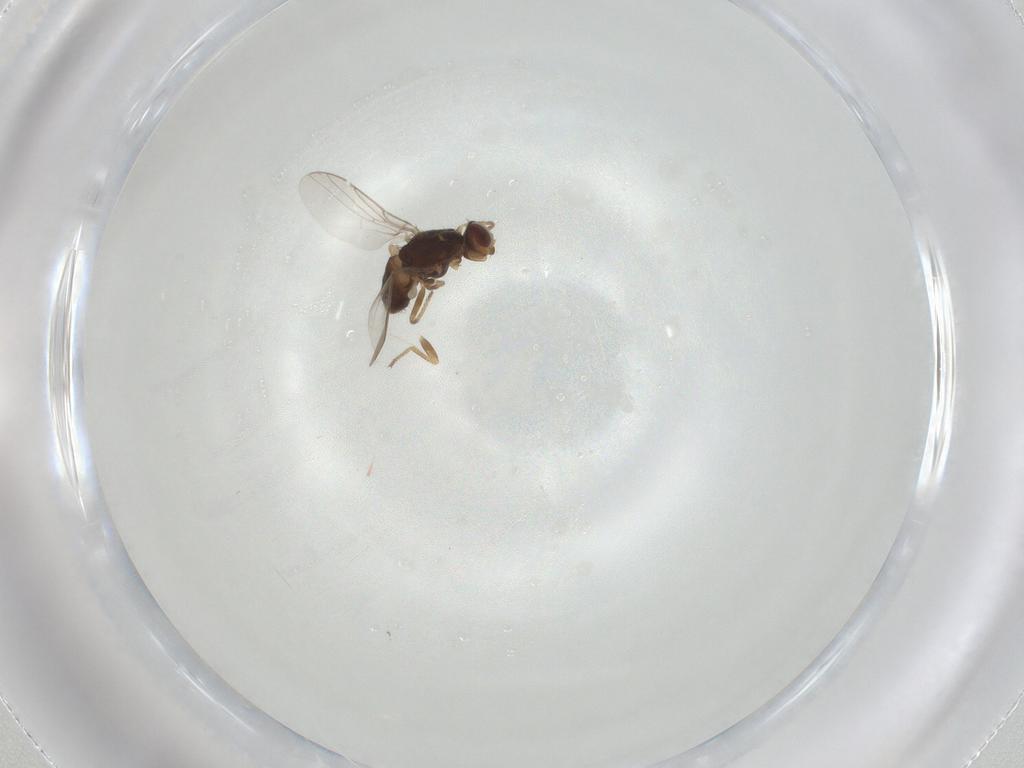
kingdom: Animalia
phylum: Arthropoda
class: Insecta
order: Diptera
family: Chloropidae
